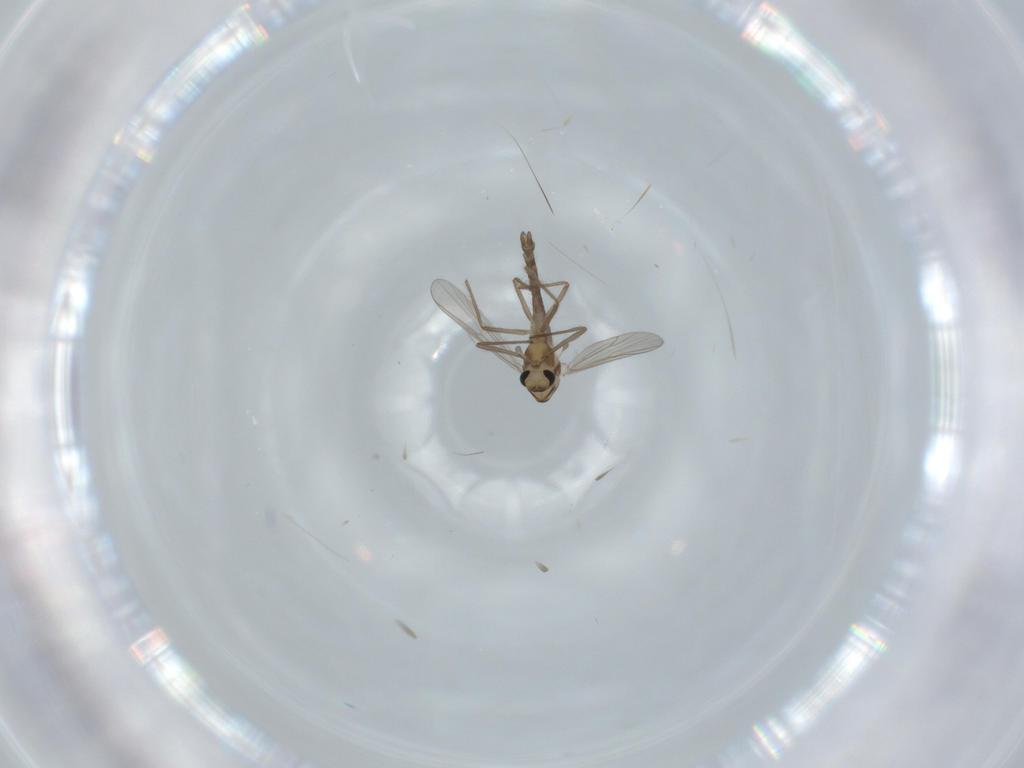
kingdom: Animalia
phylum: Arthropoda
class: Insecta
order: Diptera
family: Chironomidae
